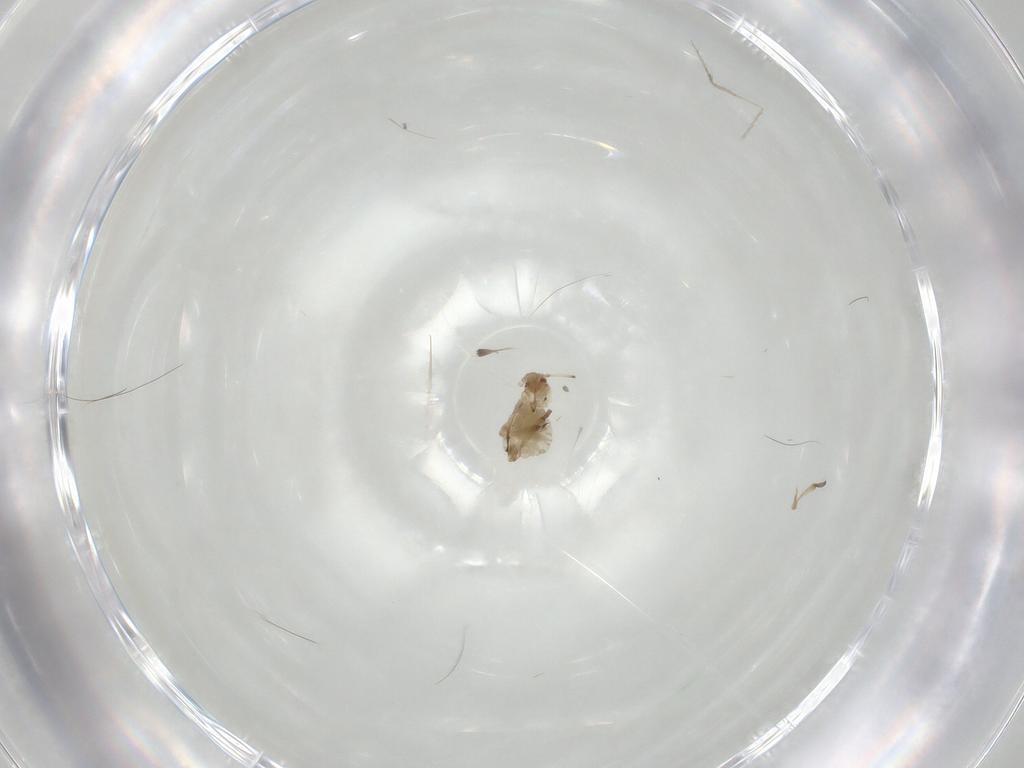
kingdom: Animalia
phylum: Arthropoda
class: Insecta
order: Hemiptera
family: Aphididae
